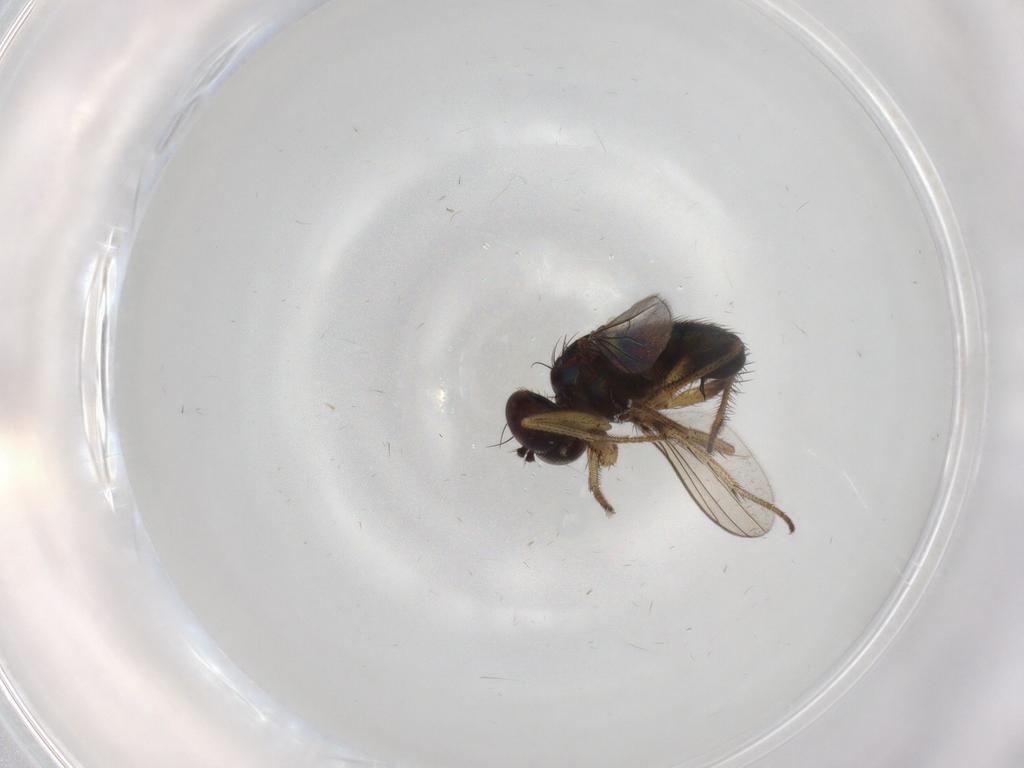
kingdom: Animalia
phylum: Arthropoda
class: Insecta
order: Diptera
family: Dolichopodidae
